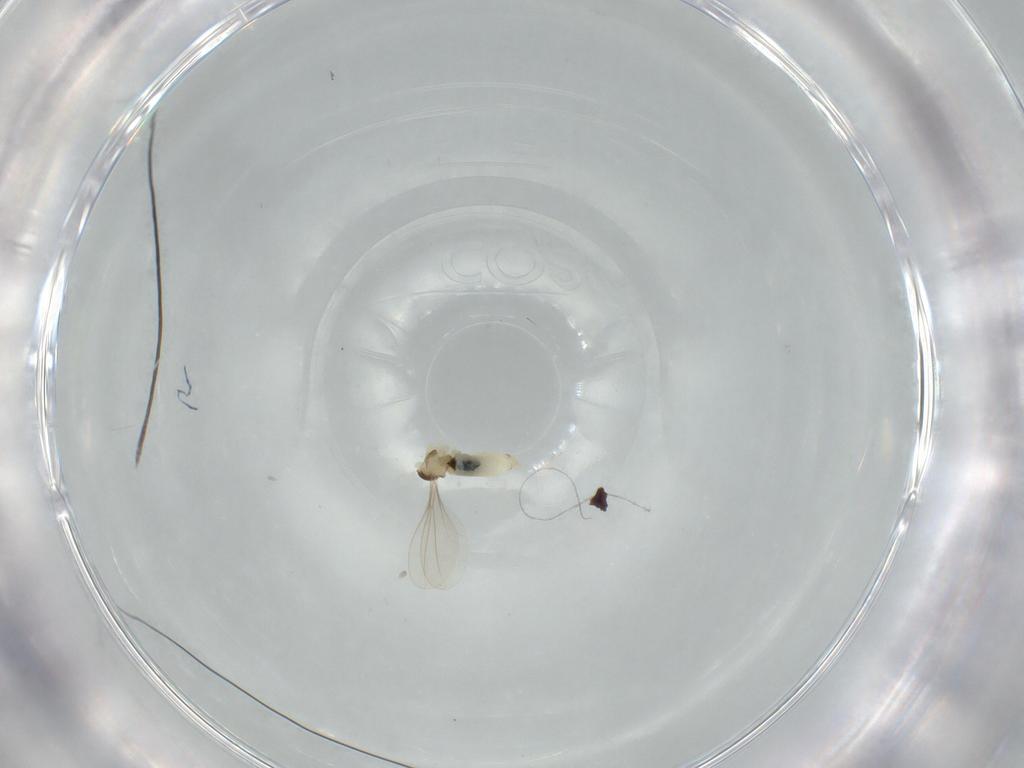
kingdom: Animalia
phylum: Arthropoda
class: Insecta
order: Diptera
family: Cecidomyiidae
